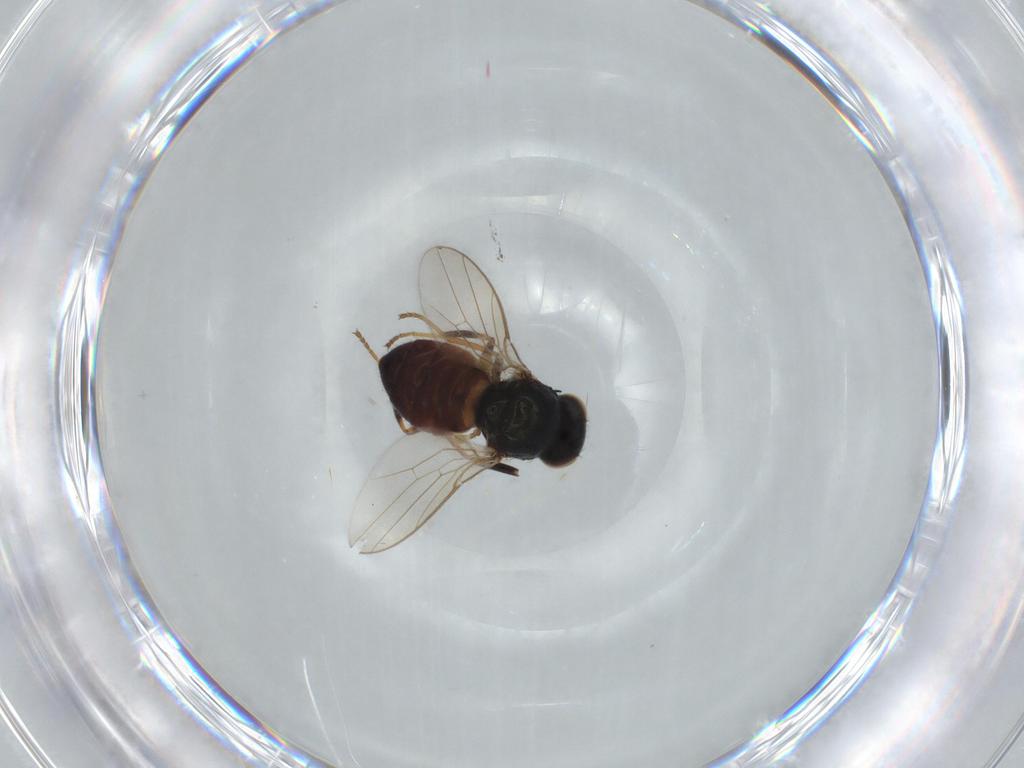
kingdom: Animalia
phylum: Arthropoda
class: Insecta
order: Diptera
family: Chloropidae
